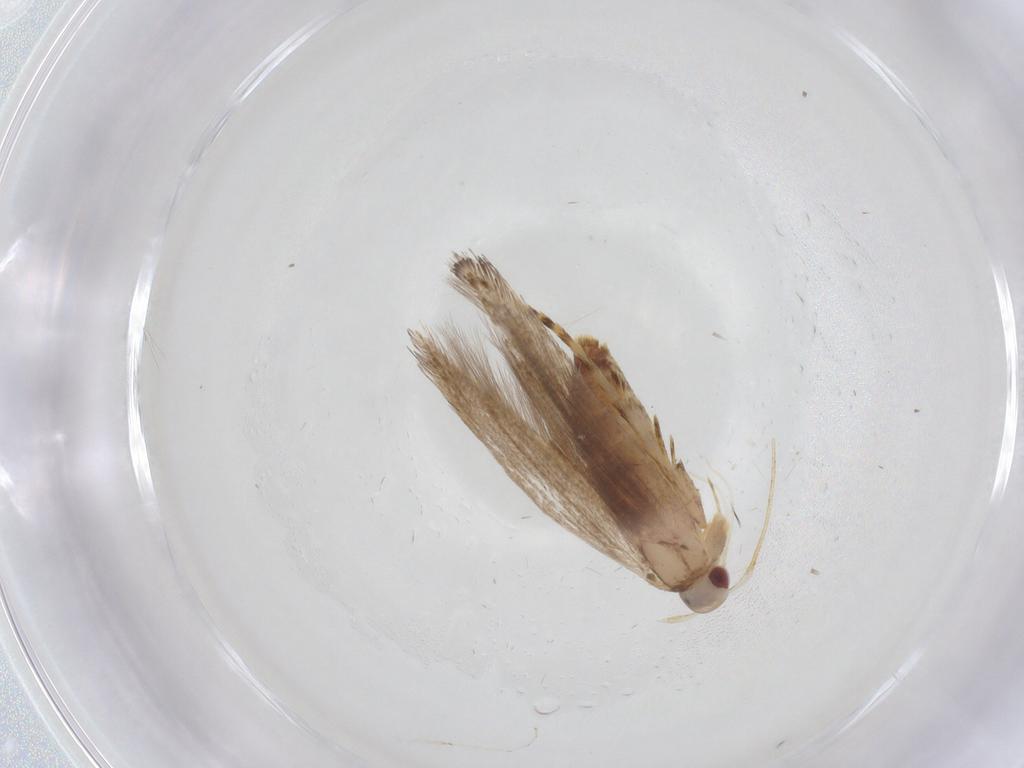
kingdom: Animalia
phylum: Arthropoda
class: Insecta
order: Lepidoptera
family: Cosmopterigidae
